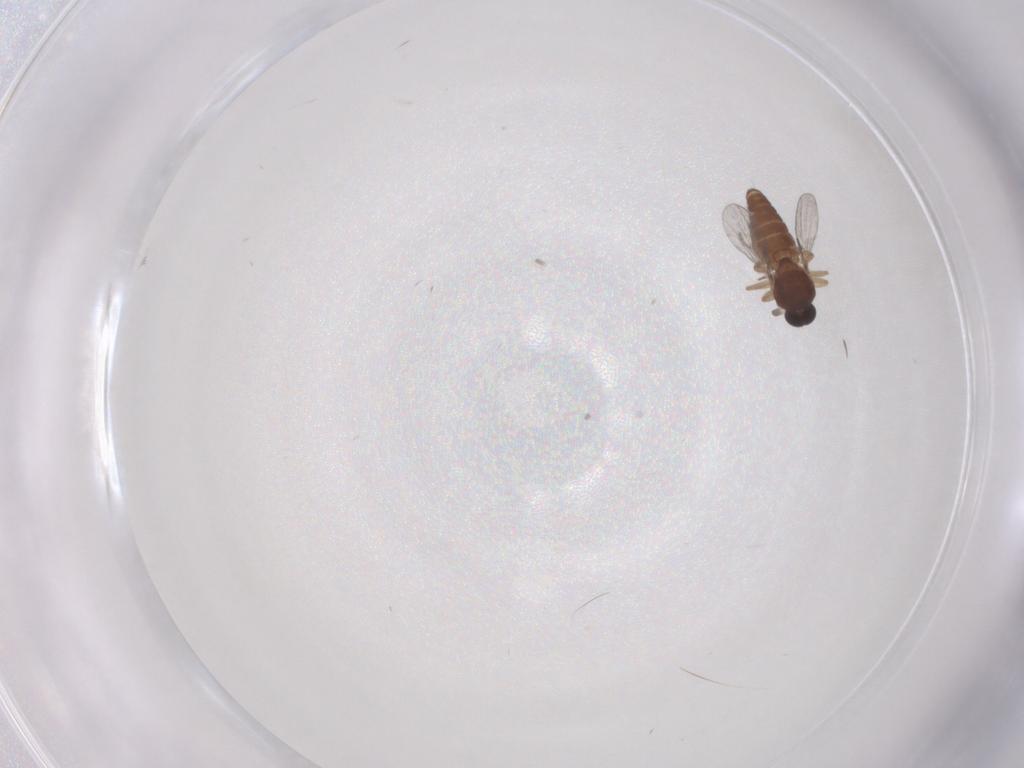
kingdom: Animalia
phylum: Arthropoda
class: Insecta
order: Diptera
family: Ceratopogonidae
